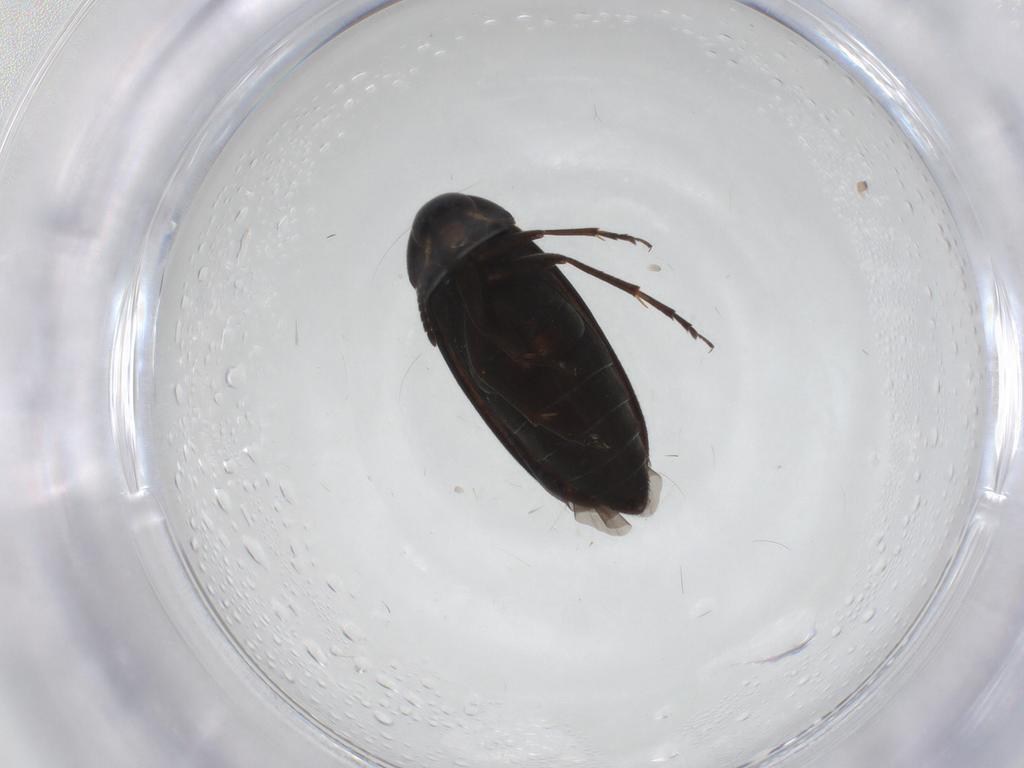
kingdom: Animalia
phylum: Arthropoda
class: Insecta
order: Coleoptera
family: Scraptiidae
